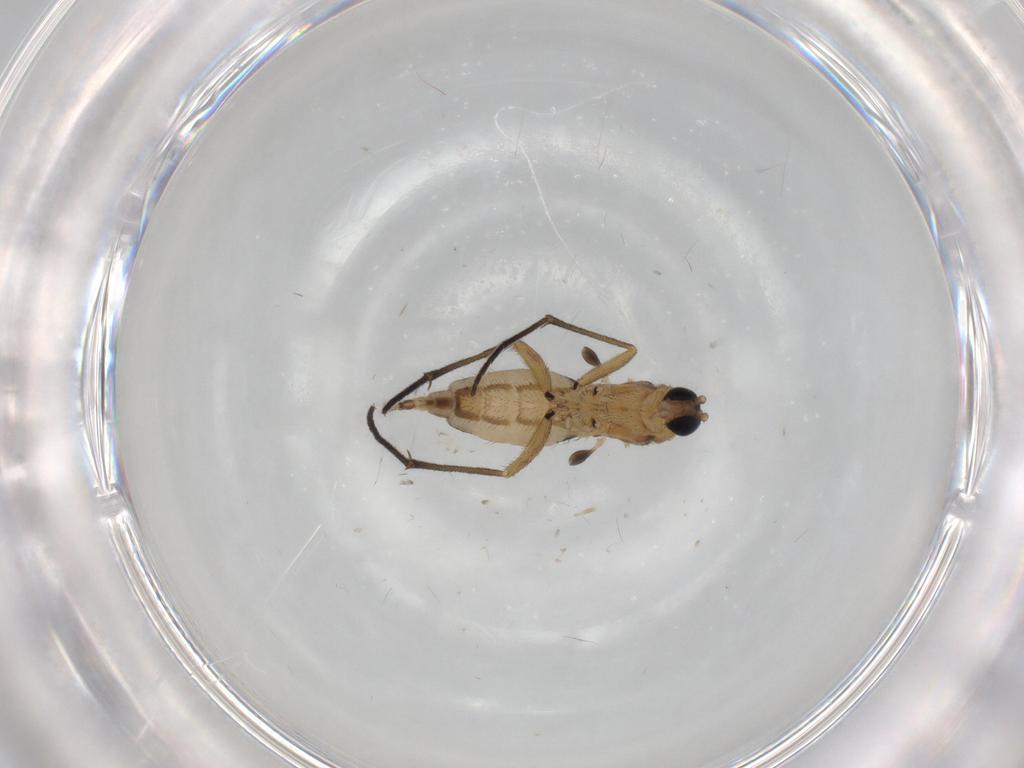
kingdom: Animalia
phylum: Arthropoda
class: Insecta
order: Diptera
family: Sciaridae
